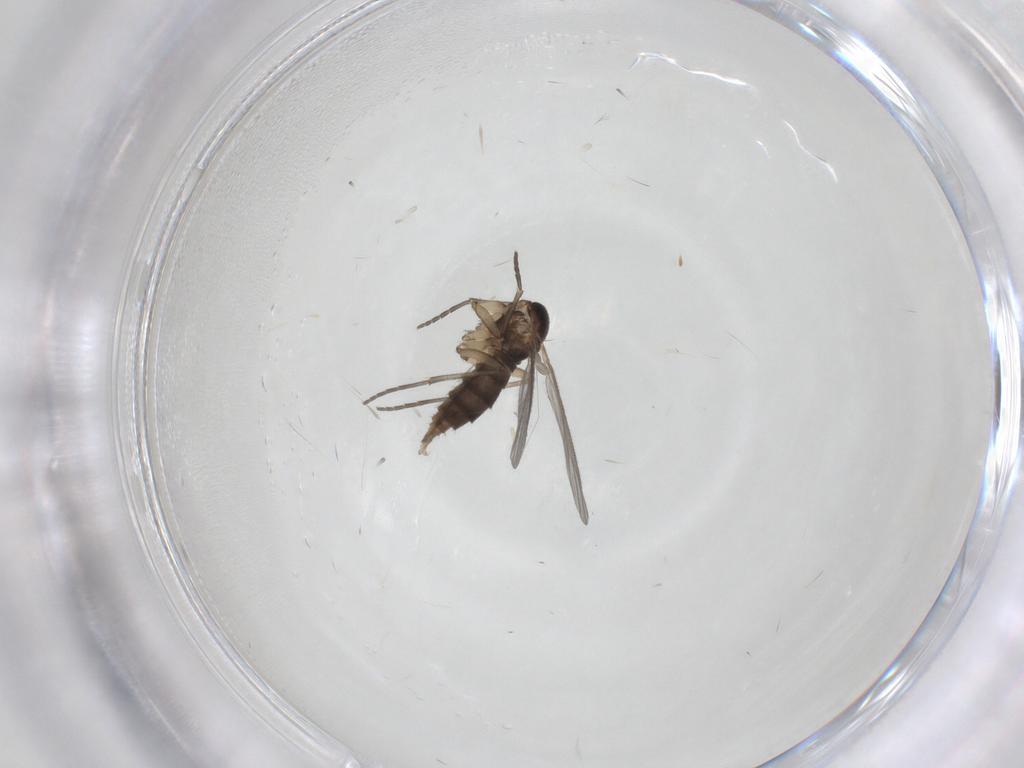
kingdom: Animalia
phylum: Arthropoda
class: Insecta
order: Diptera
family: Sciaridae
